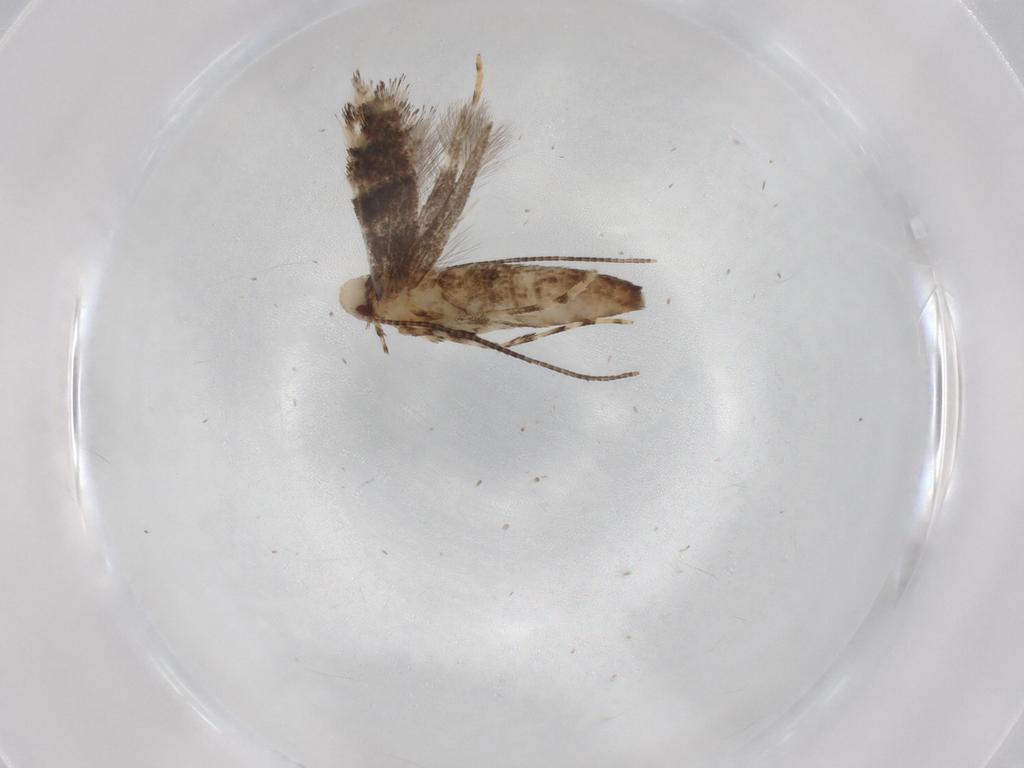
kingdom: Animalia
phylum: Arthropoda
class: Insecta
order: Lepidoptera
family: Gracillariidae
